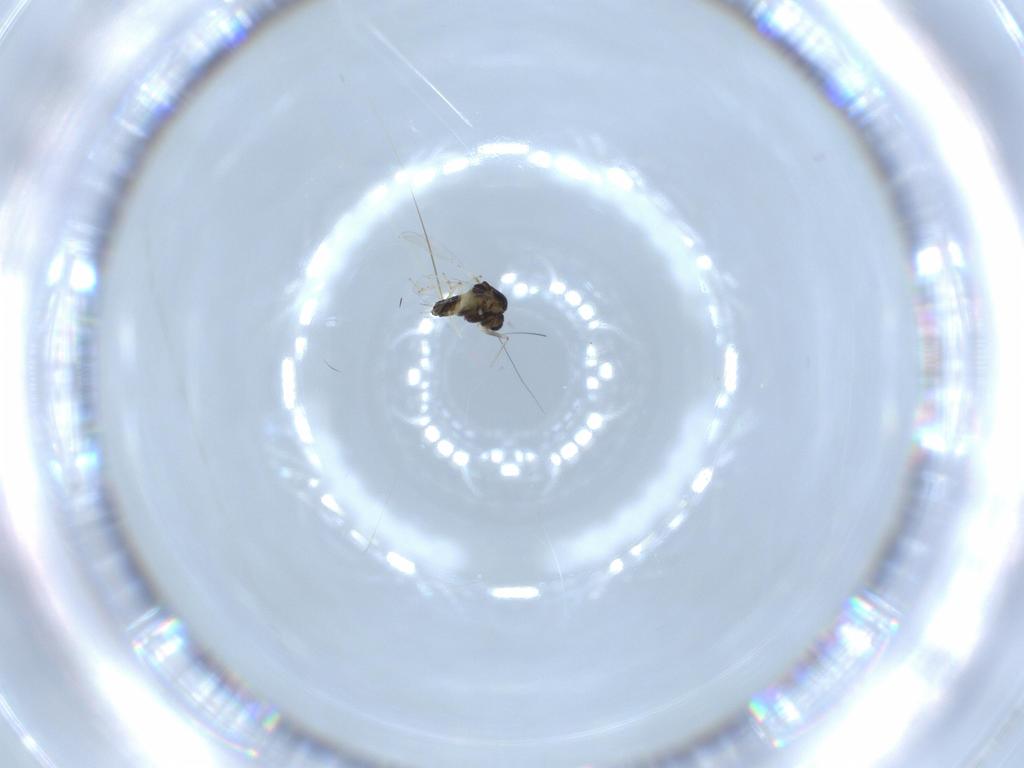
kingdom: Animalia
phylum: Arthropoda
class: Insecta
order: Diptera
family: Chironomidae
